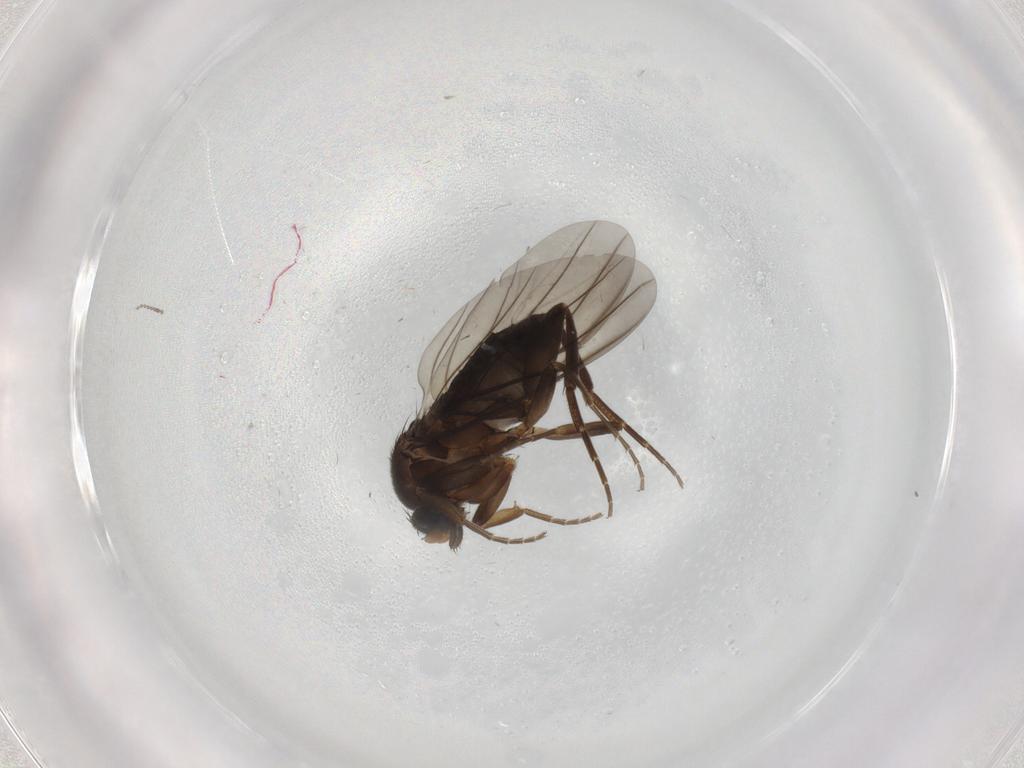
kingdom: Animalia
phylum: Arthropoda
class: Insecta
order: Diptera
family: Cecidomyiidae
